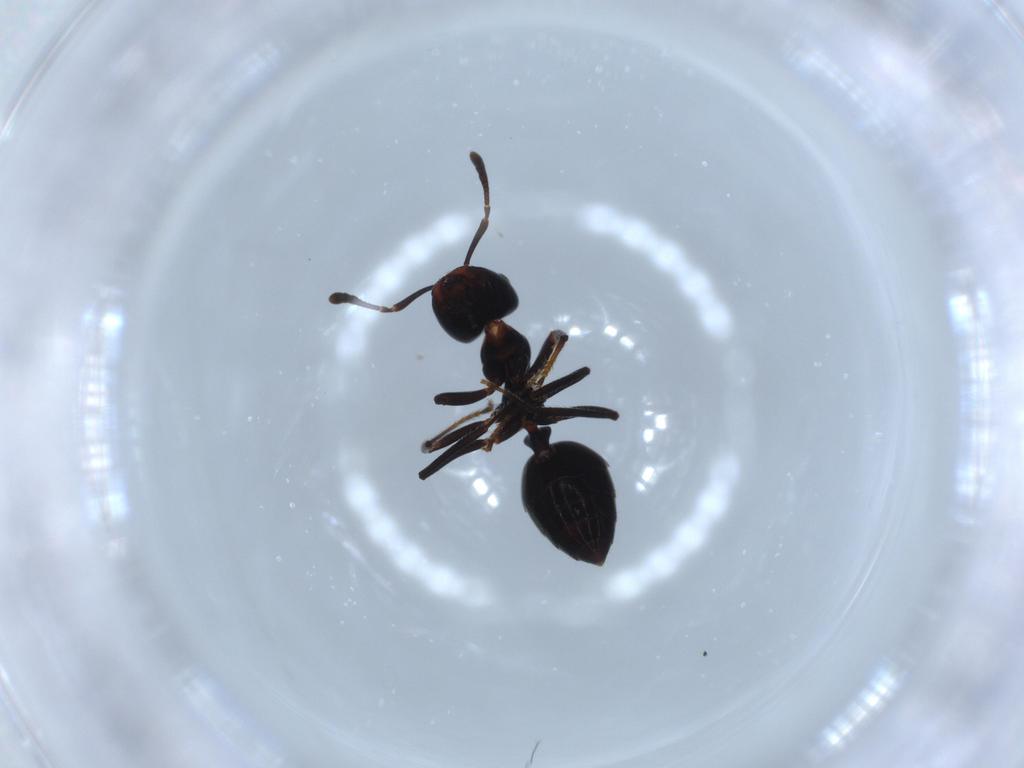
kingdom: Animalia
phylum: Arthropoda
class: Insecta
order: Hymenoptera
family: Formicidae
